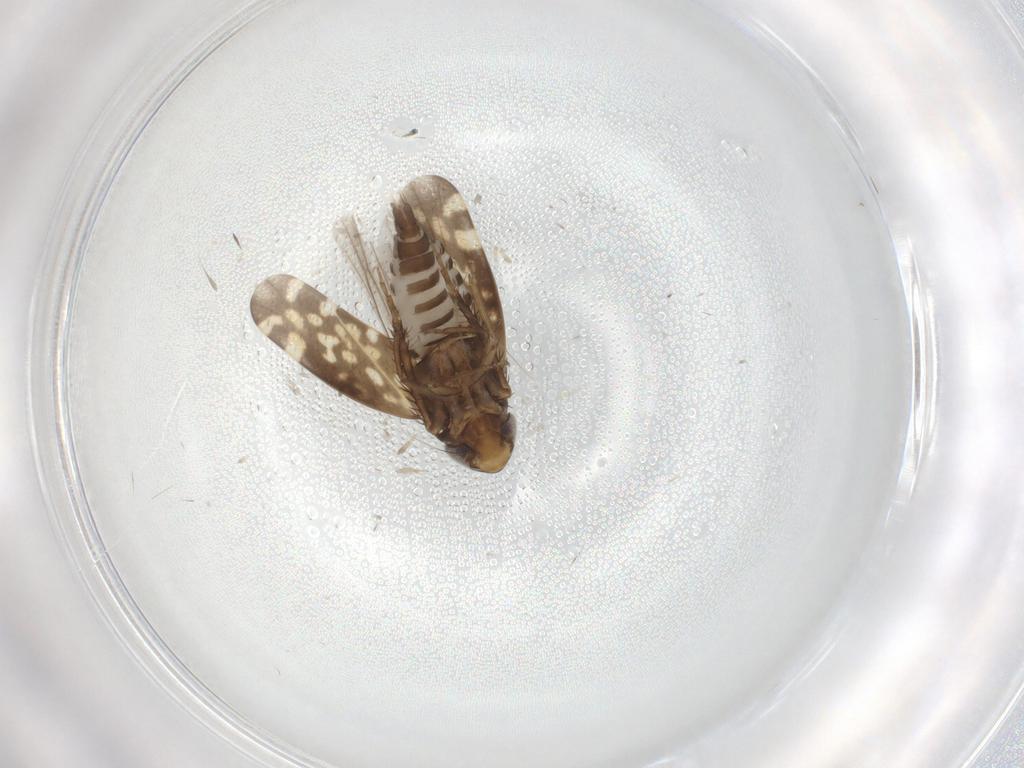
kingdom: Animalia
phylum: Arthropoda
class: Insecta
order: Hemiptera
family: Cicadellidae
